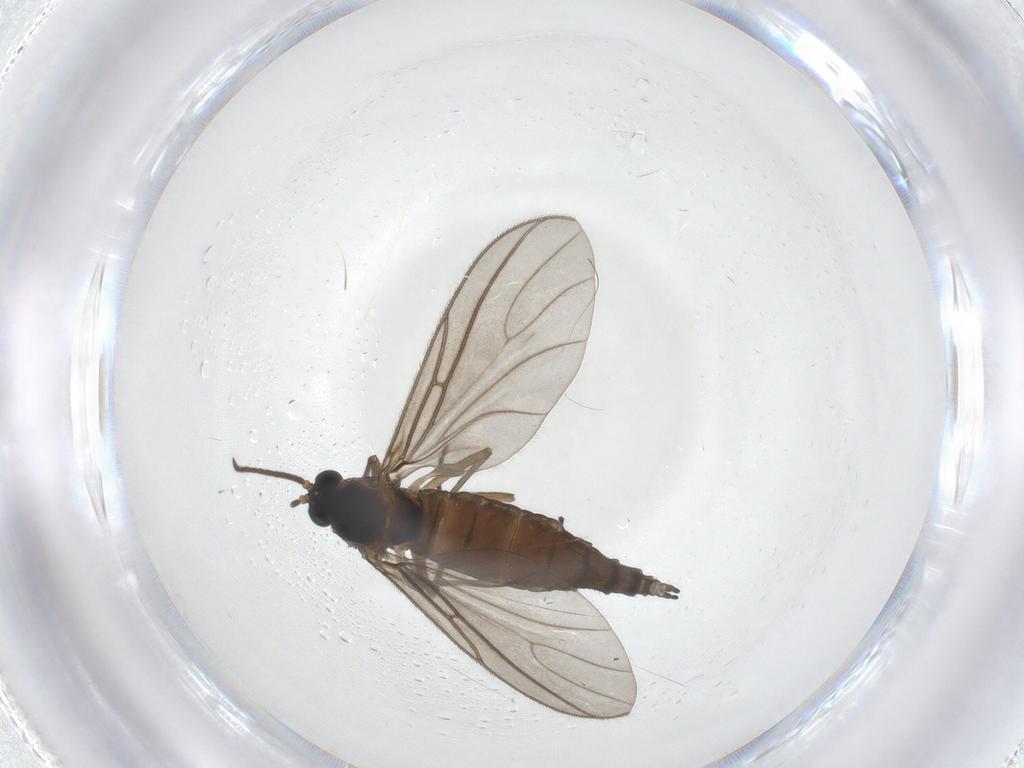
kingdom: Animalia
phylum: Arthropoda
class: Insecta
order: Diptera
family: Sciaridae
